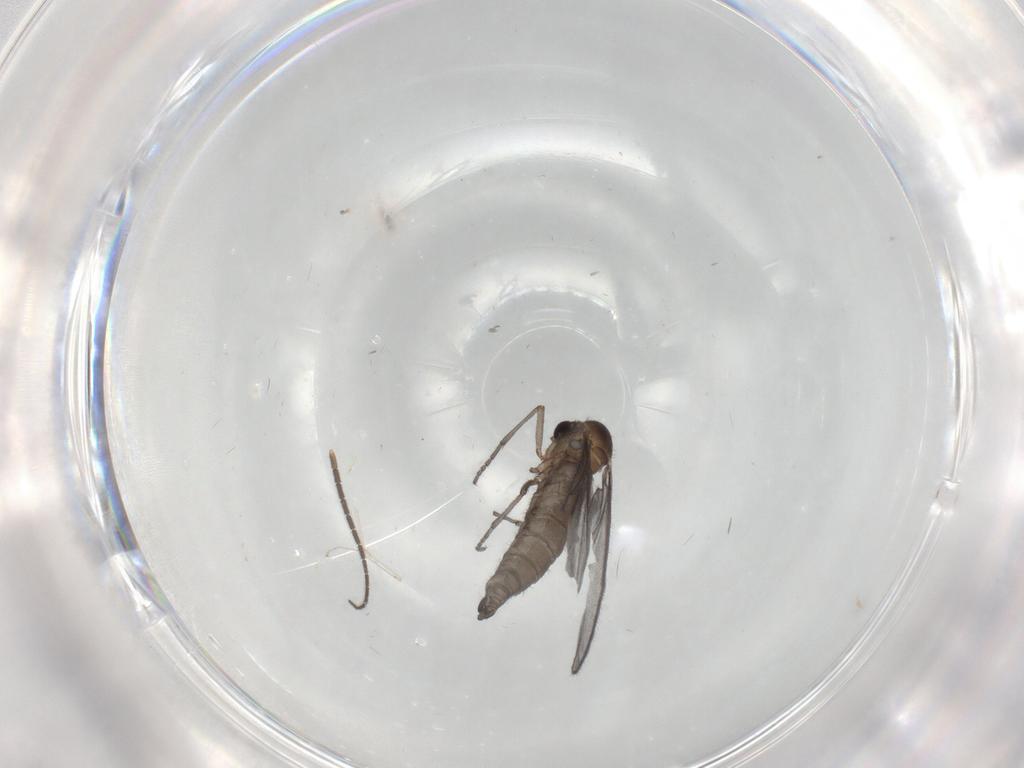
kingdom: Animalia
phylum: Arthropoda
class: Insecta
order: Diptera
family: Sciaridae
